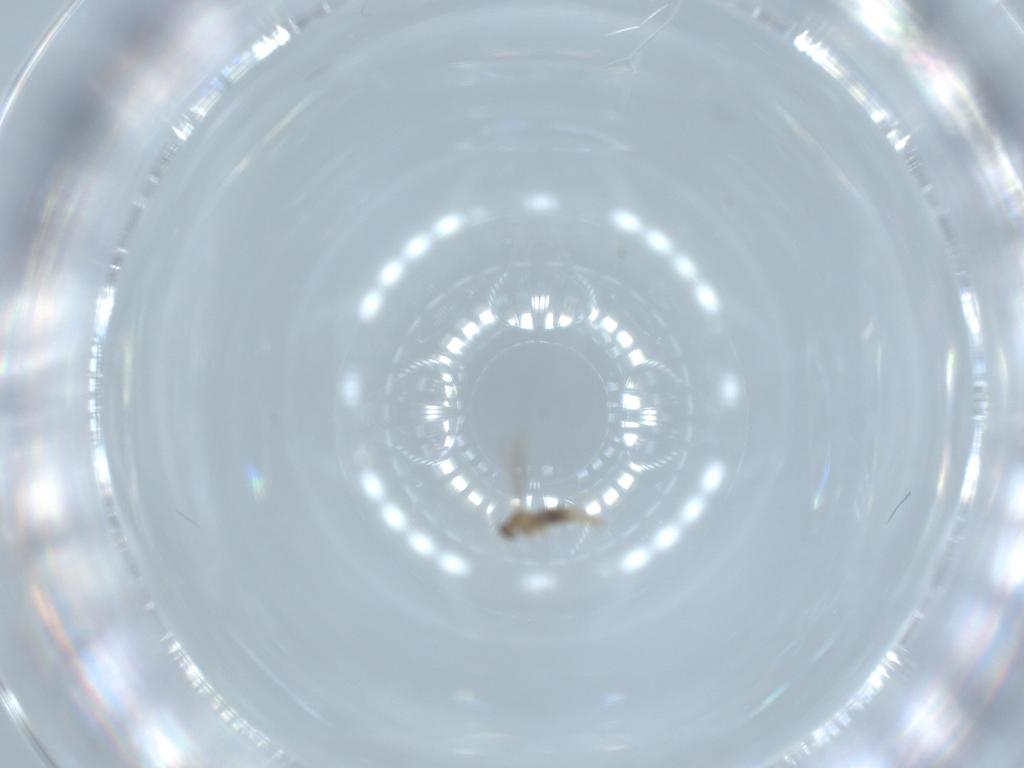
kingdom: Animalia
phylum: Arthropoda
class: Insecta
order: Diptera
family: Cecidomyiidae
